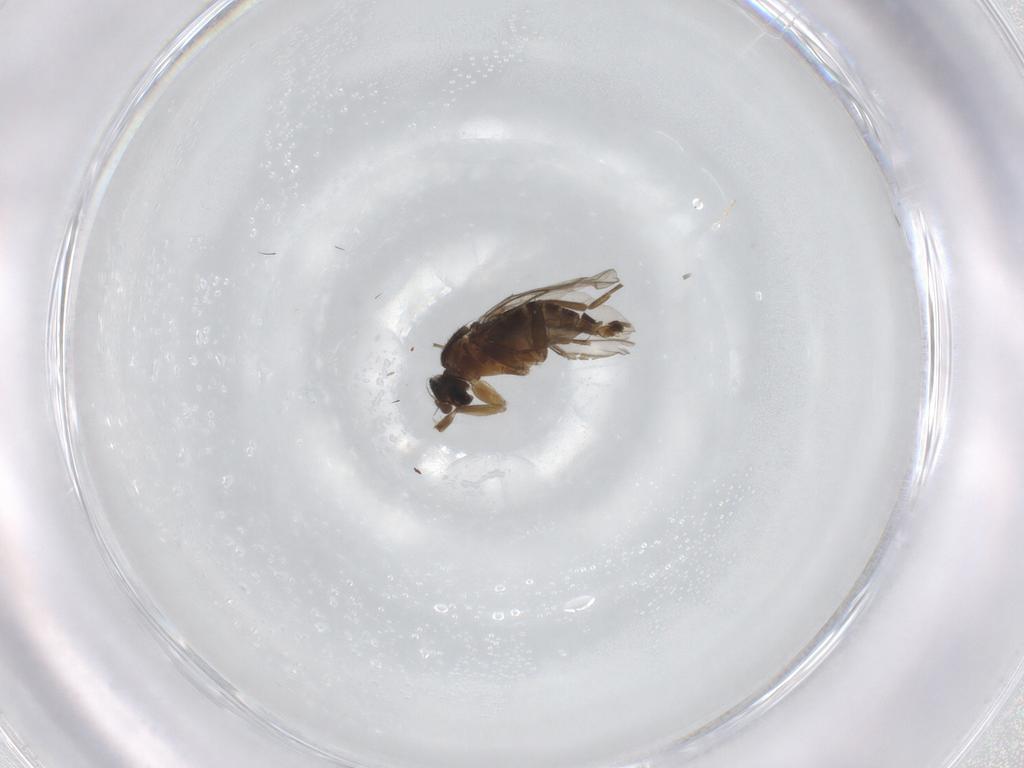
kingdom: Animalia
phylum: Arthropoda
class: Insecta
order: Diptera
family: Phoridae
